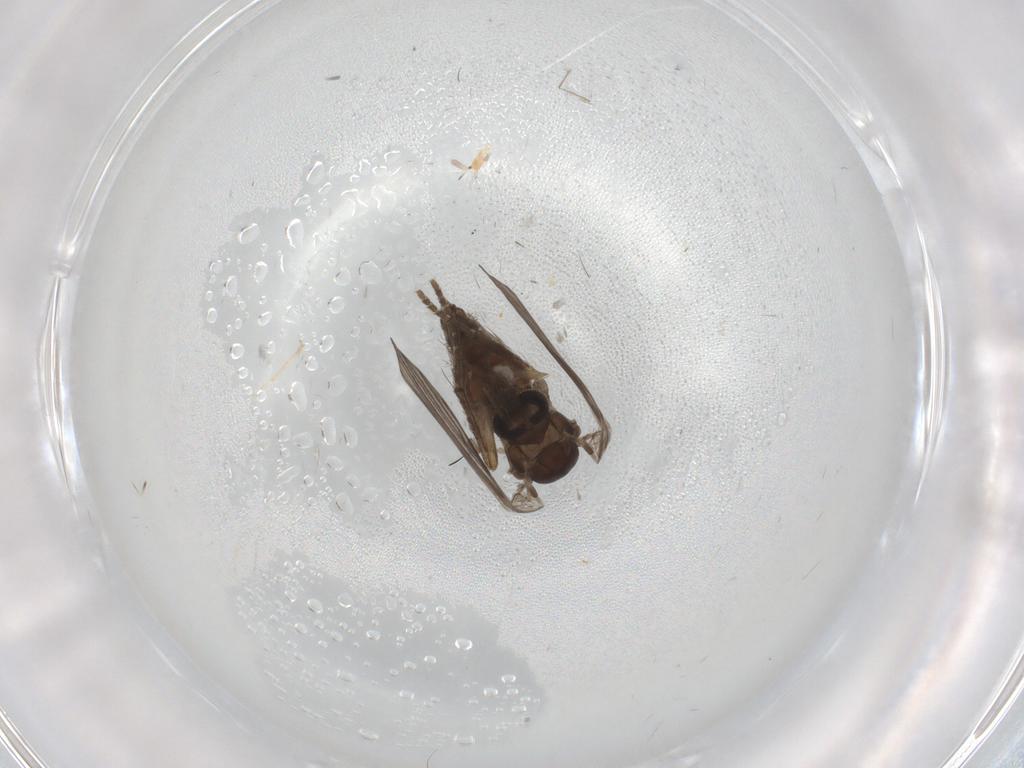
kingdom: Animalia
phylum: Arthropoda
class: Insecta
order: Diptera
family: Psychodidae
